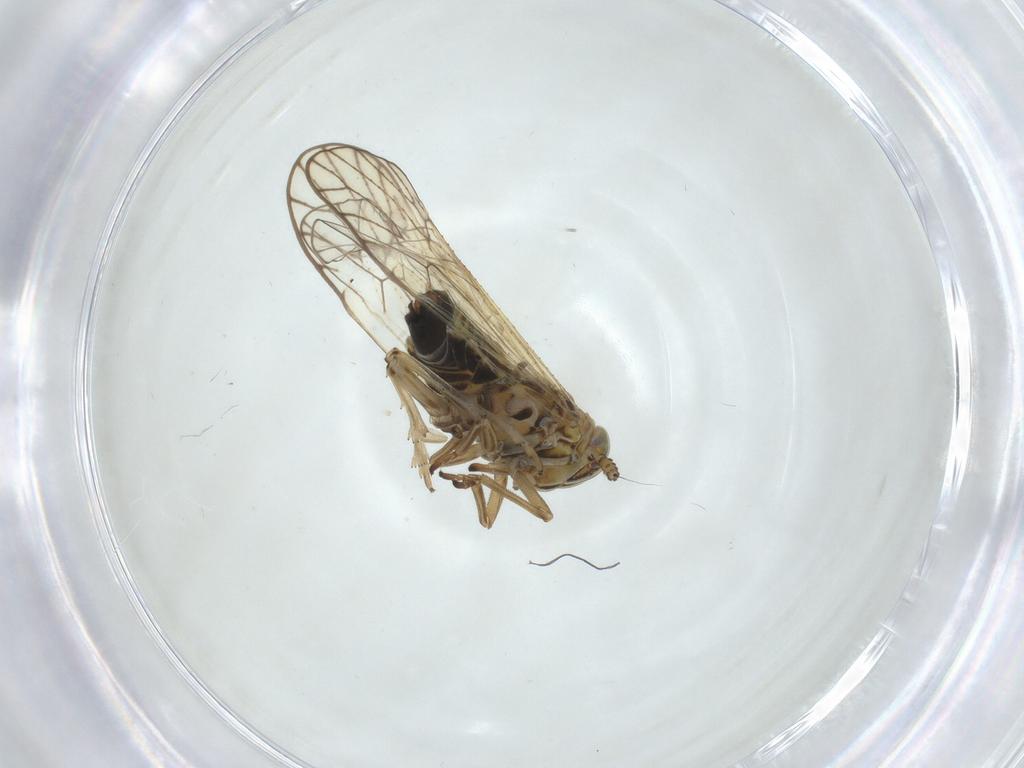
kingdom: Animalia
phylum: Arthropoda
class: Insecta
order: Hemiptera
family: Delphacidae
